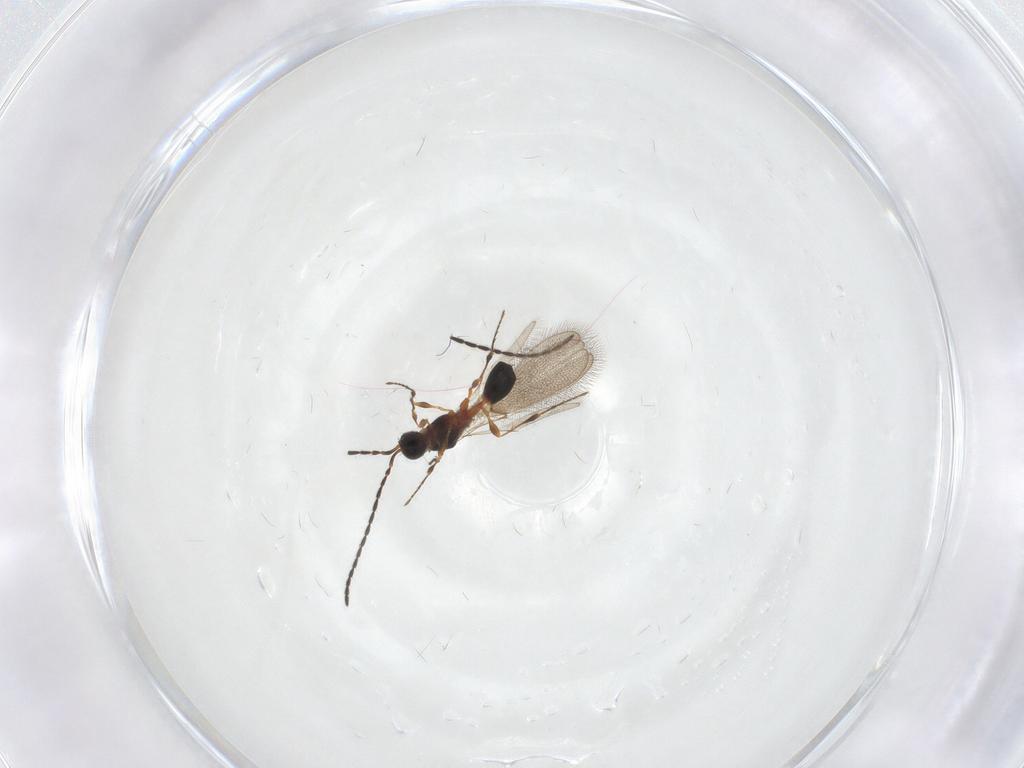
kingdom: Animalia
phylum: Arthropoda
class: Insecta
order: Hymenoptera
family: Diapriidae
